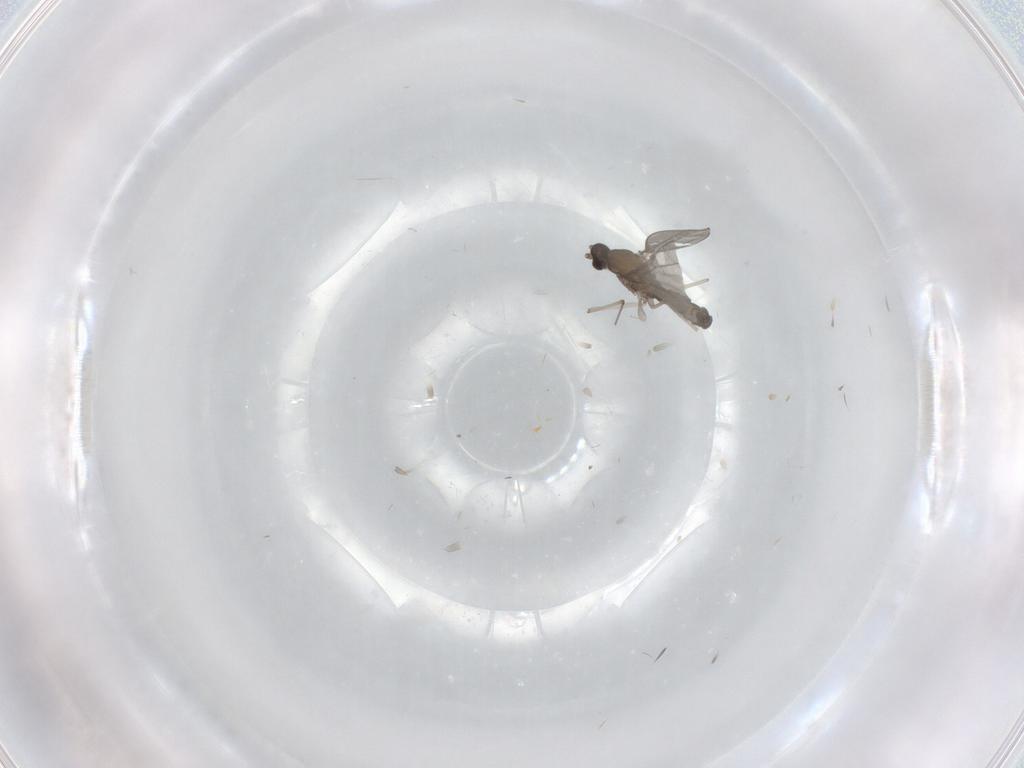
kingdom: Animalia
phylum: Arthropoda
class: Insecta
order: Diptera
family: Cecidomyiidae
